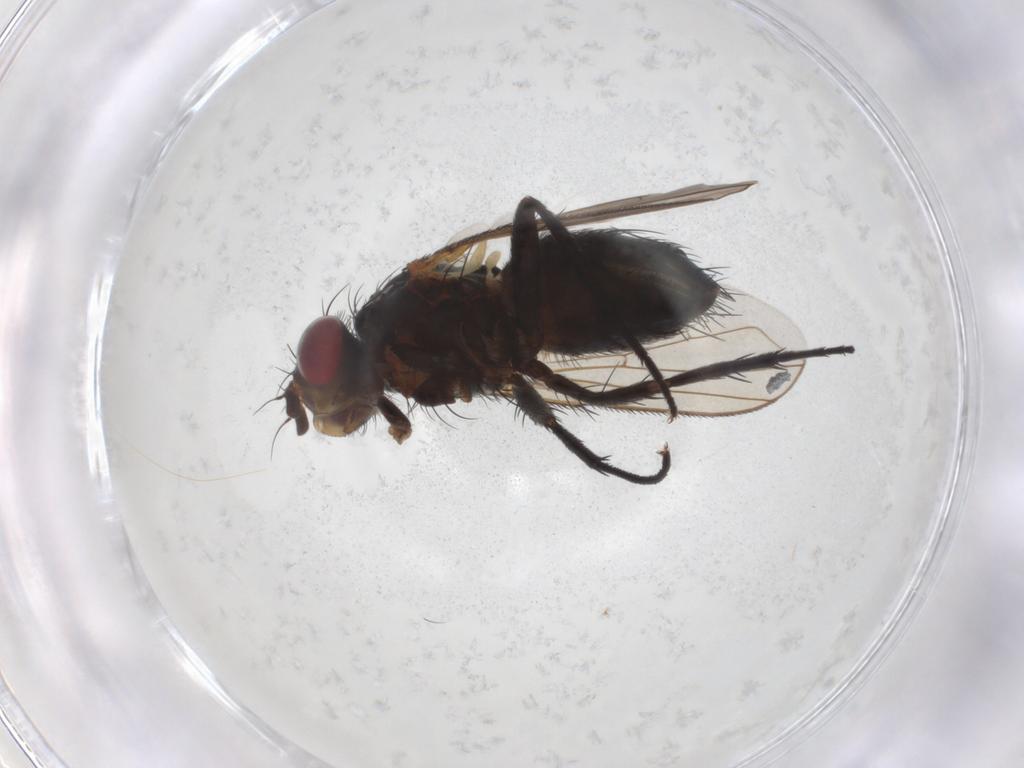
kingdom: Animalia
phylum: Arthropoda
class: Insecta
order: Diptera
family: Calliphoridae
